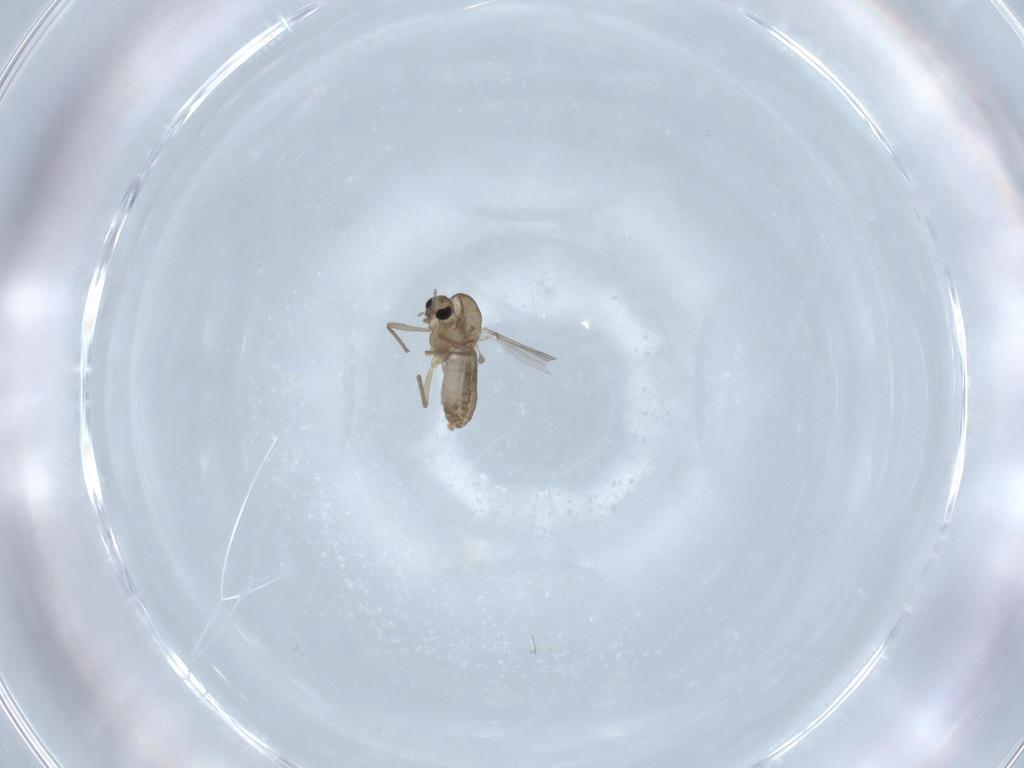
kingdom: Animalia
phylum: Arthropoda
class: Insecta
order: Diptera
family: Chironomidae
